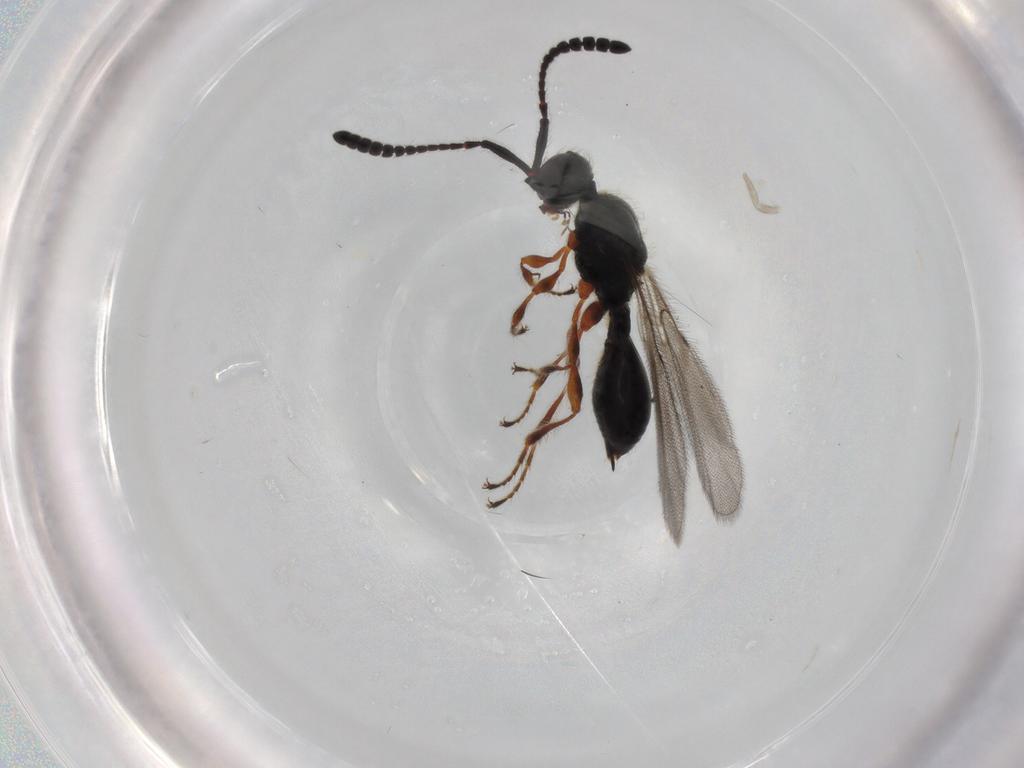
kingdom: Animalia
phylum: Arthropoda
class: Insecta
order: Hymenoptera
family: Diapriidae
